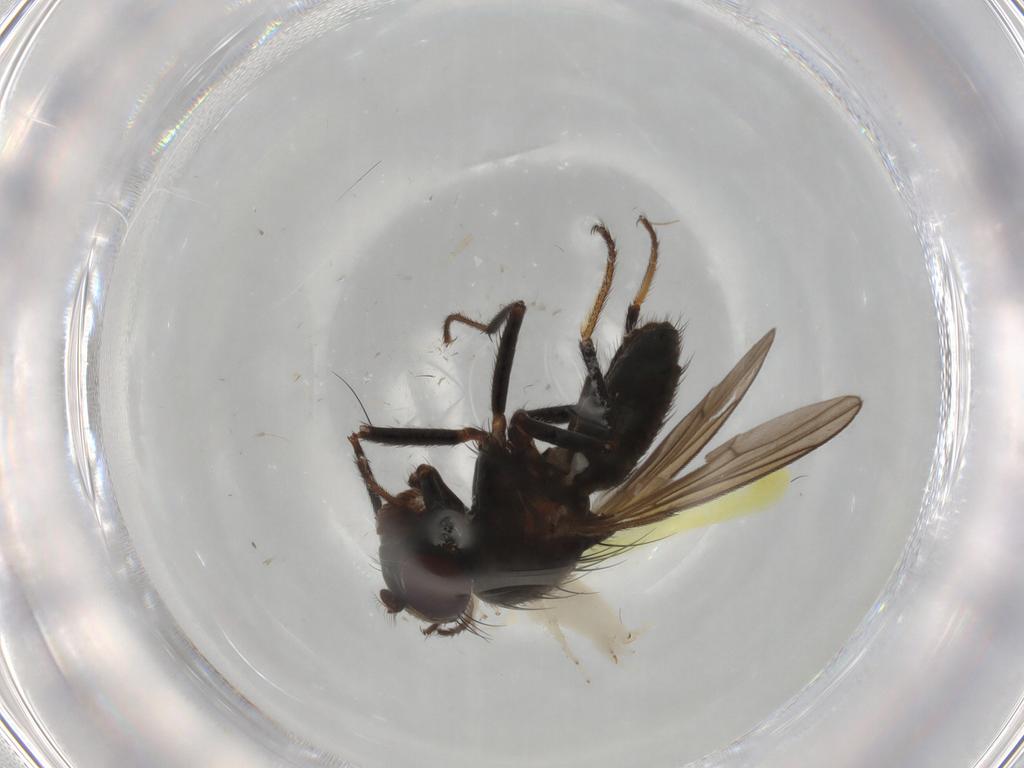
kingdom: Animalia
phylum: Arthropoda
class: Insecta
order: Diptera
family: Ephydridae
